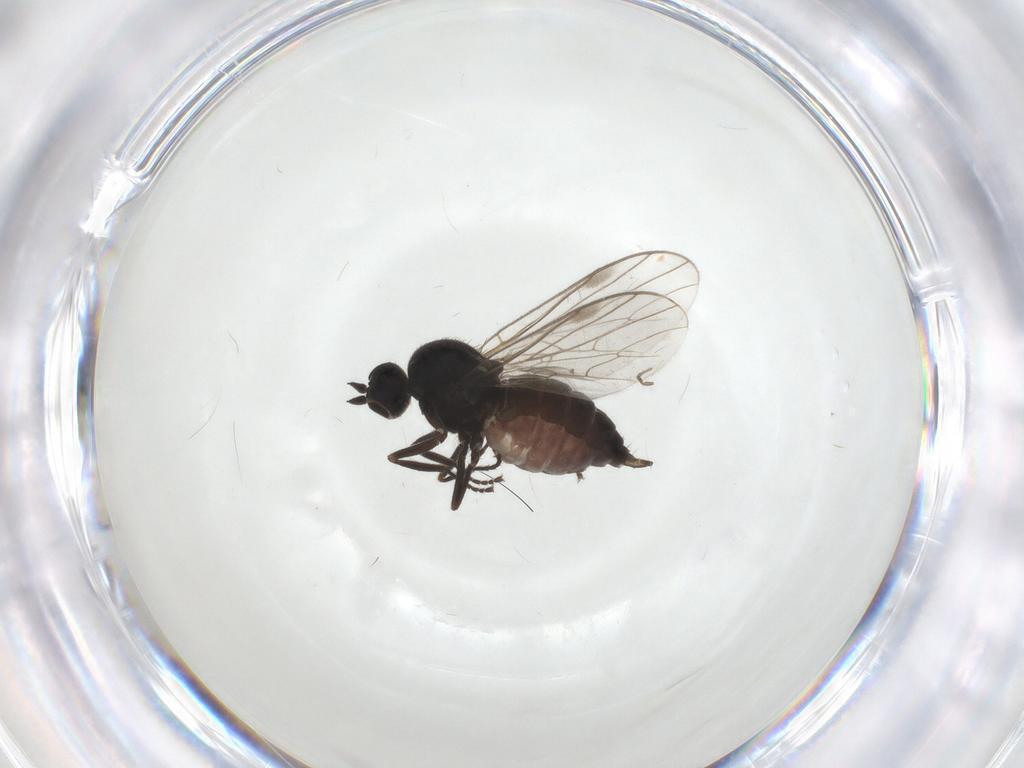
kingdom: Animalia
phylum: Arthropoda
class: Insecta
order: Diptera
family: Hybotidae
